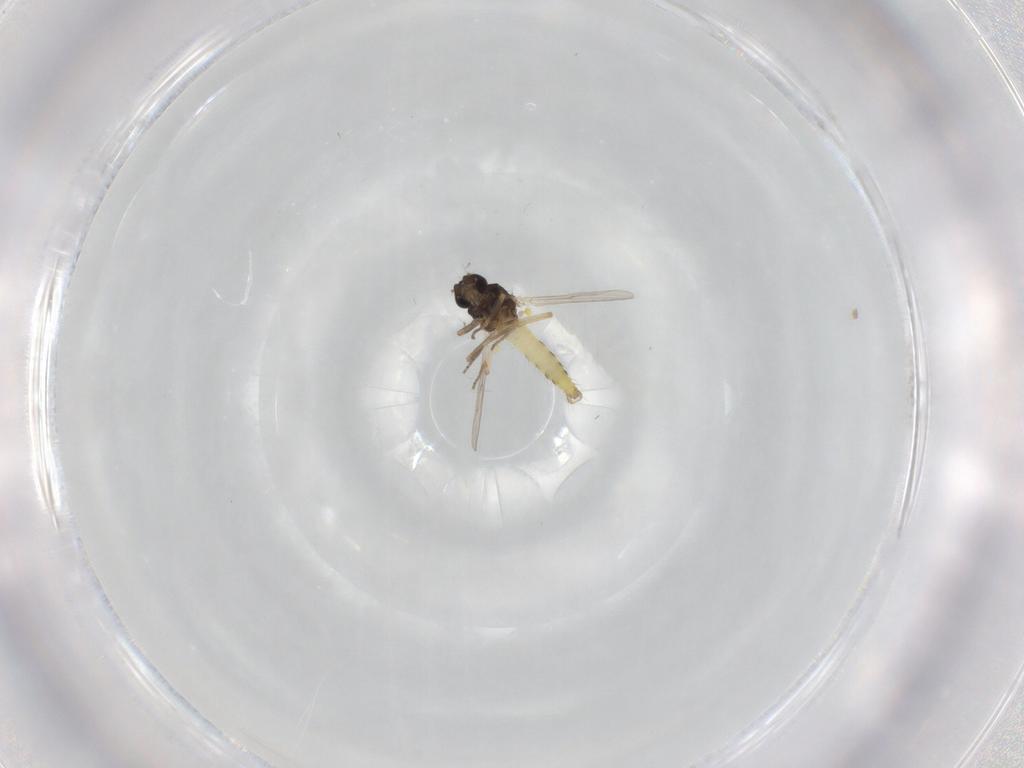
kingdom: Animalia
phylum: Arthropoda
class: Insecta
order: Diptera
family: Ceratopogonidae
